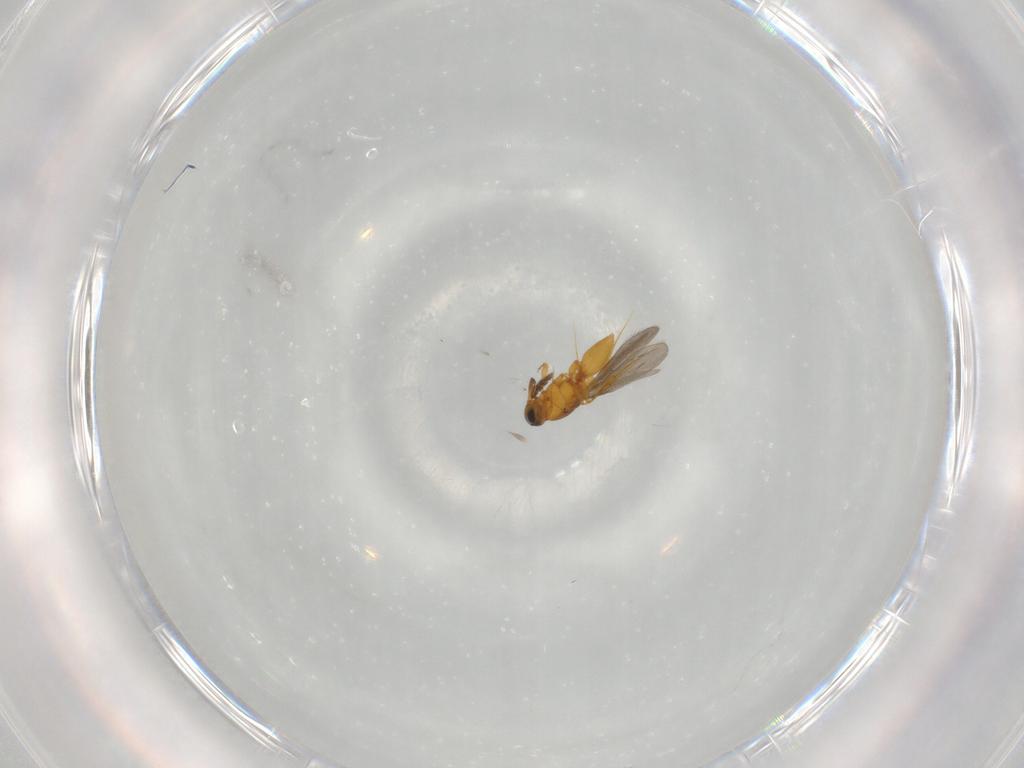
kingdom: Animalia
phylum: Arthropoda
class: Insecta
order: Hymenoptera
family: Platygastridae
